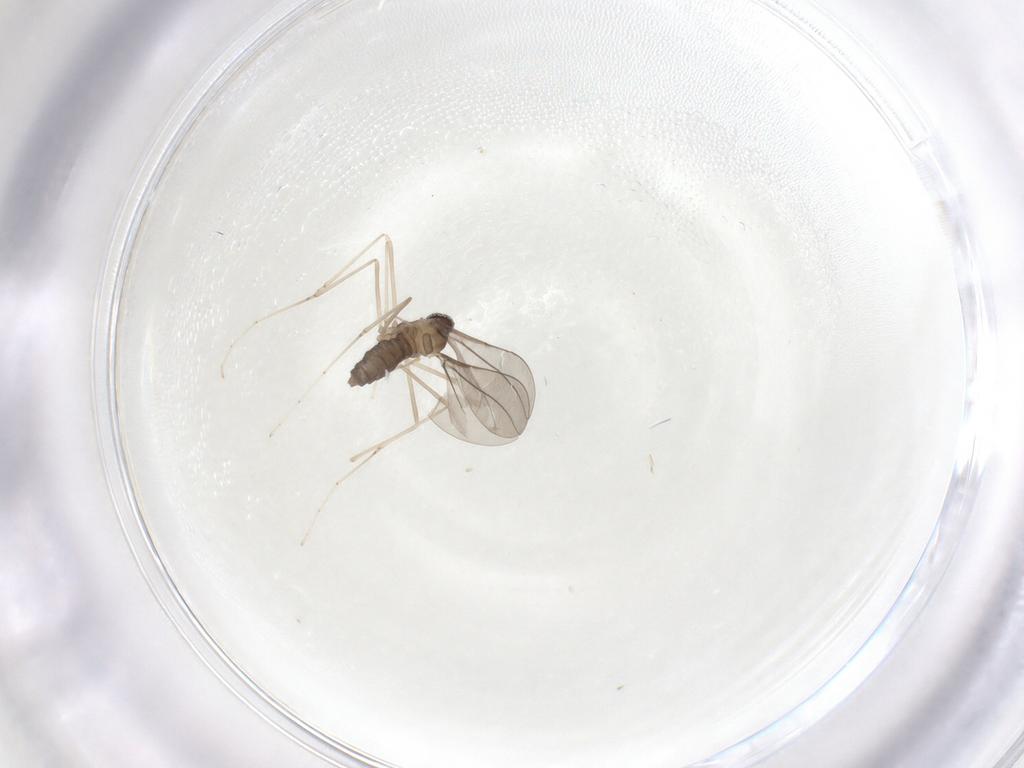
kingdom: Animalia
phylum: Arthropoda
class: Insecta
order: Diptera
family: Cecidomyiidae
